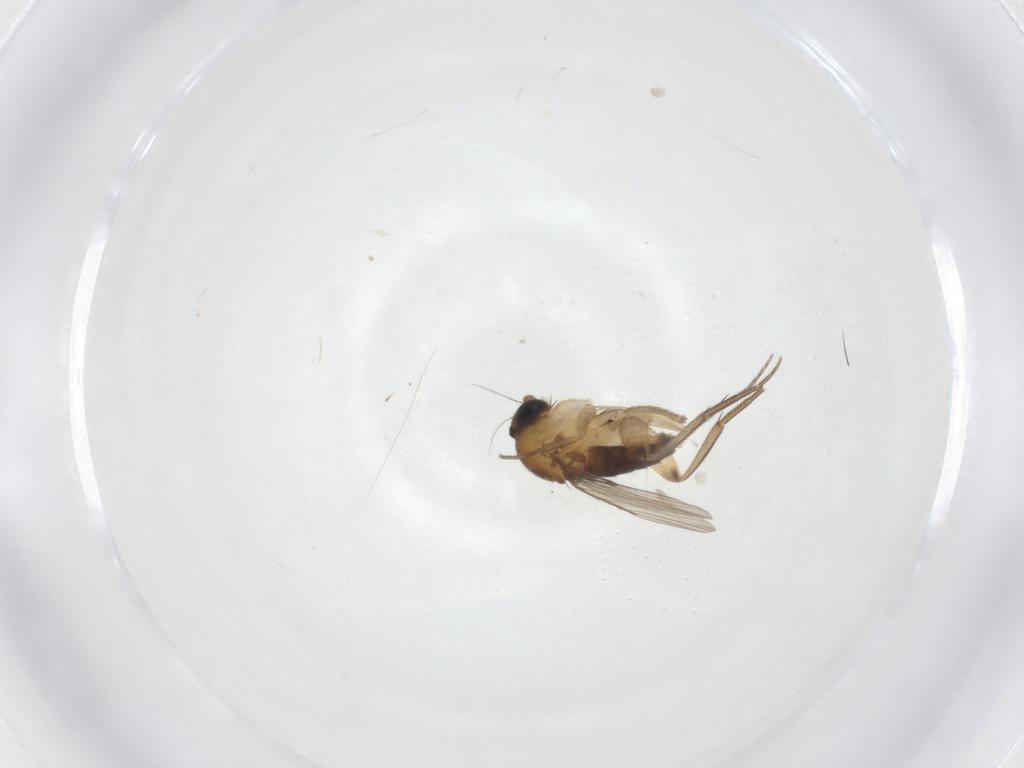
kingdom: Animalia
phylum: Arthropoda
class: Insecta
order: Diptera
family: Phoridae
